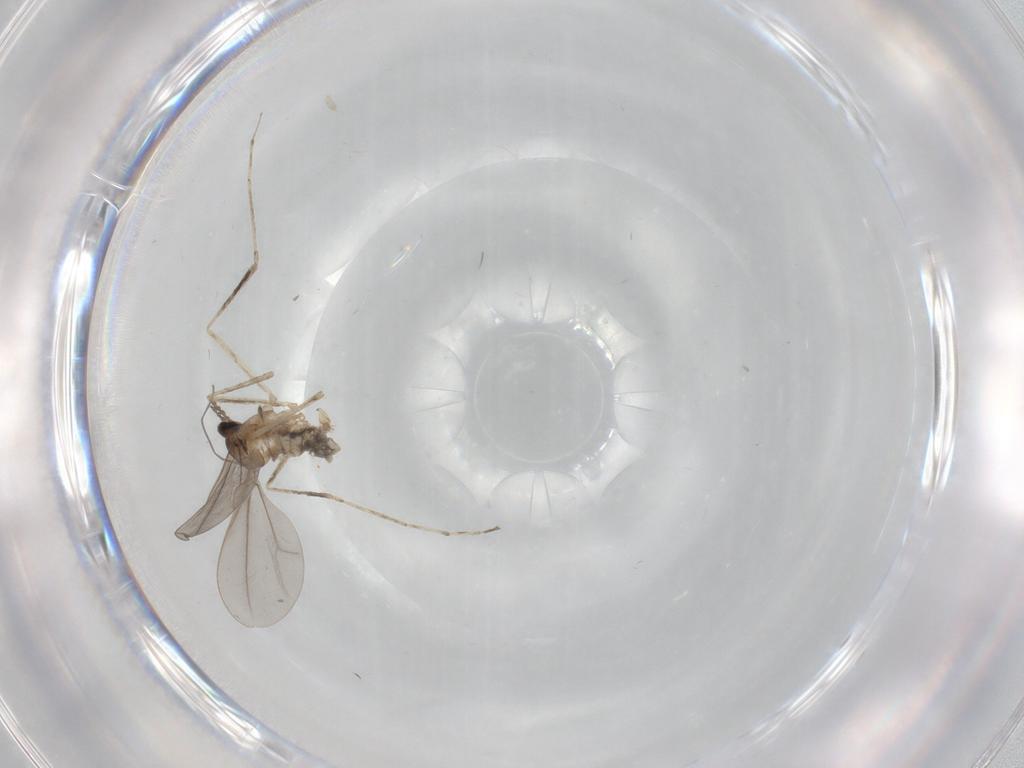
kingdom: Animalia
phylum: Arthropoda
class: Insecta
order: Diptera
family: Cecidomyiidae
